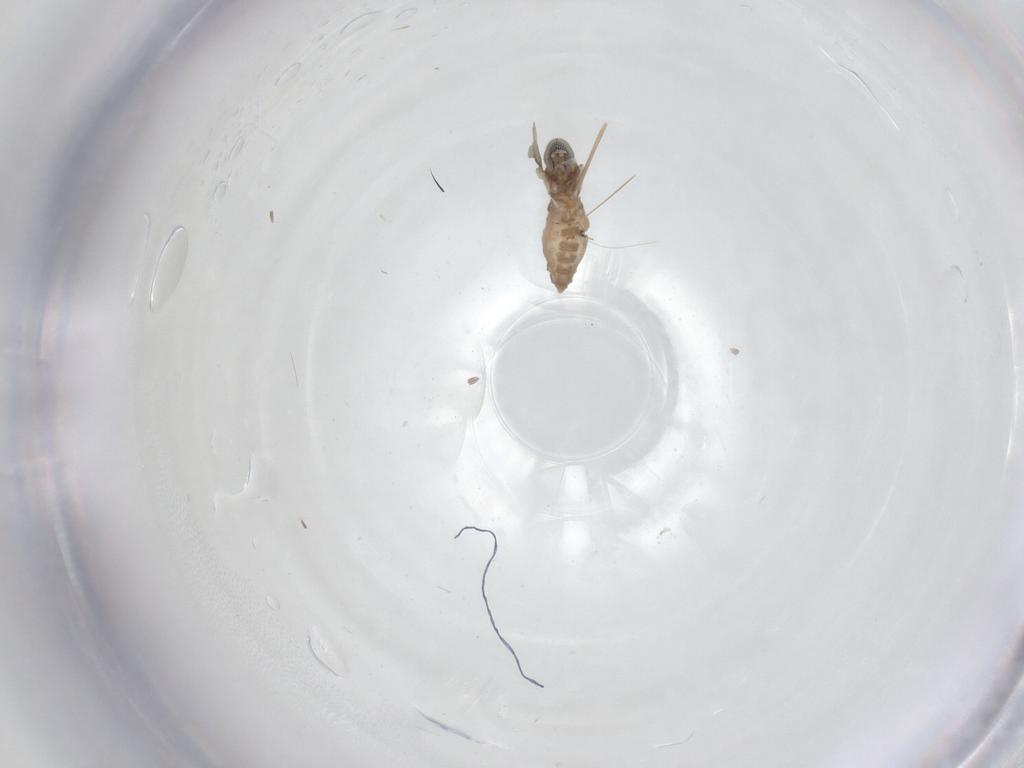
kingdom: Animalia
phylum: Arthropoda
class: Insecta
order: Diptera
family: Cecidomyiidae
